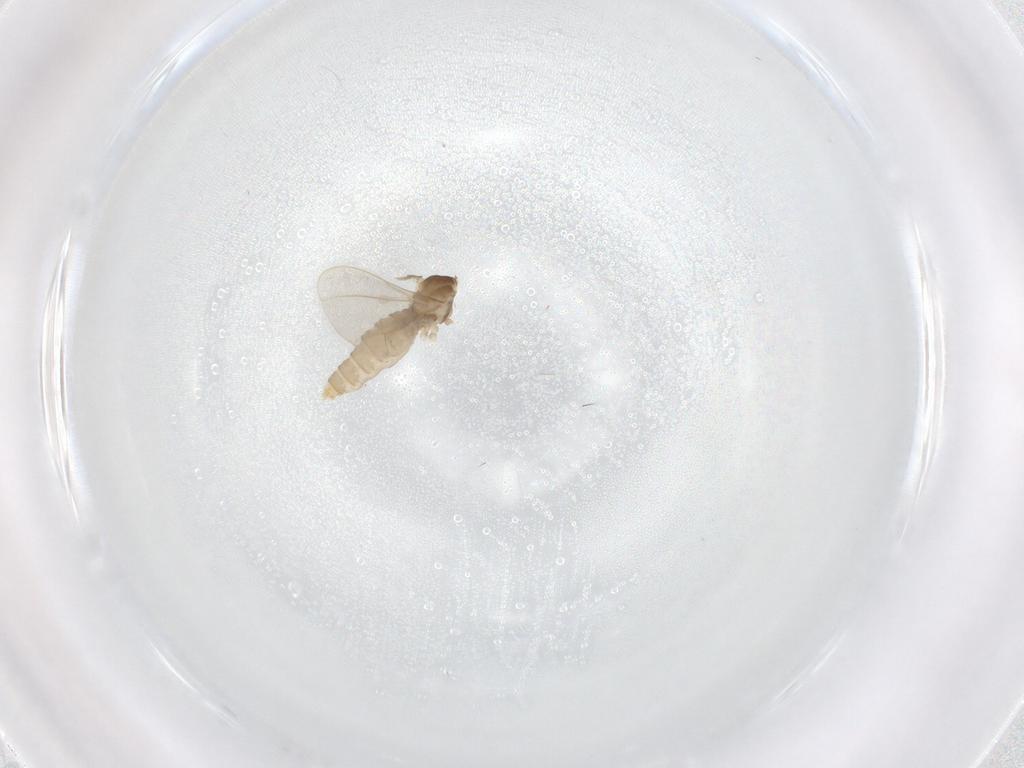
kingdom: Animalia
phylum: Arthropoda
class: Insecta
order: Diptera
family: Cecidomyiidae
